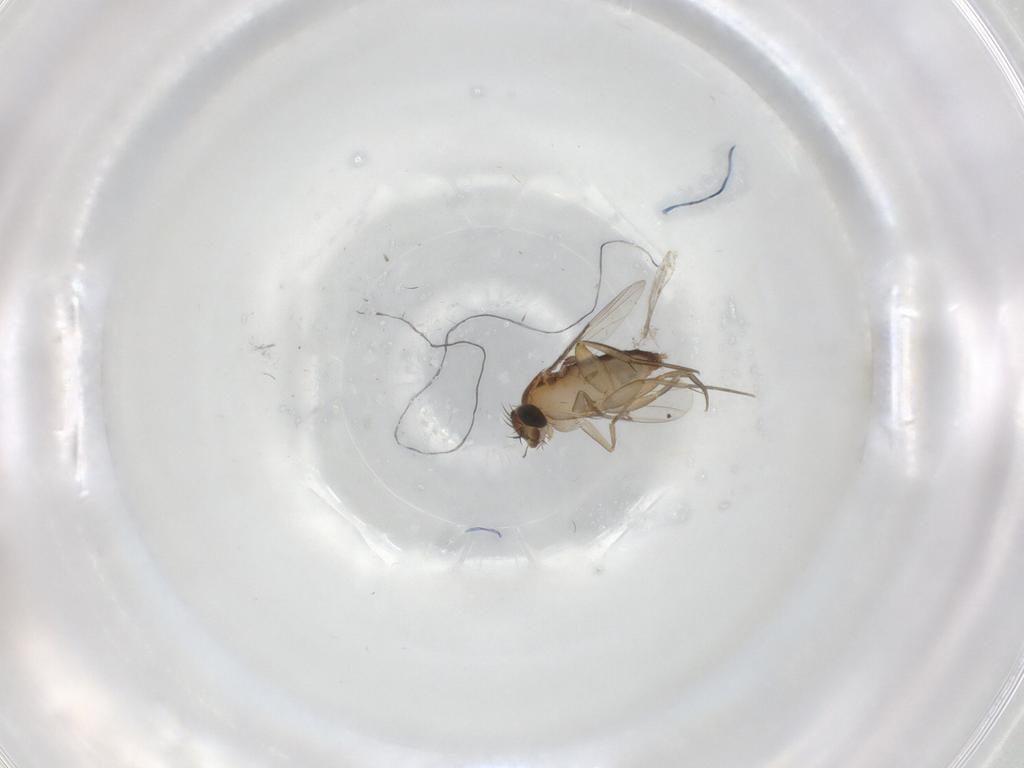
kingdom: Animalia
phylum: Arthropoda
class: Insecta
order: Diptera
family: Phoridae
